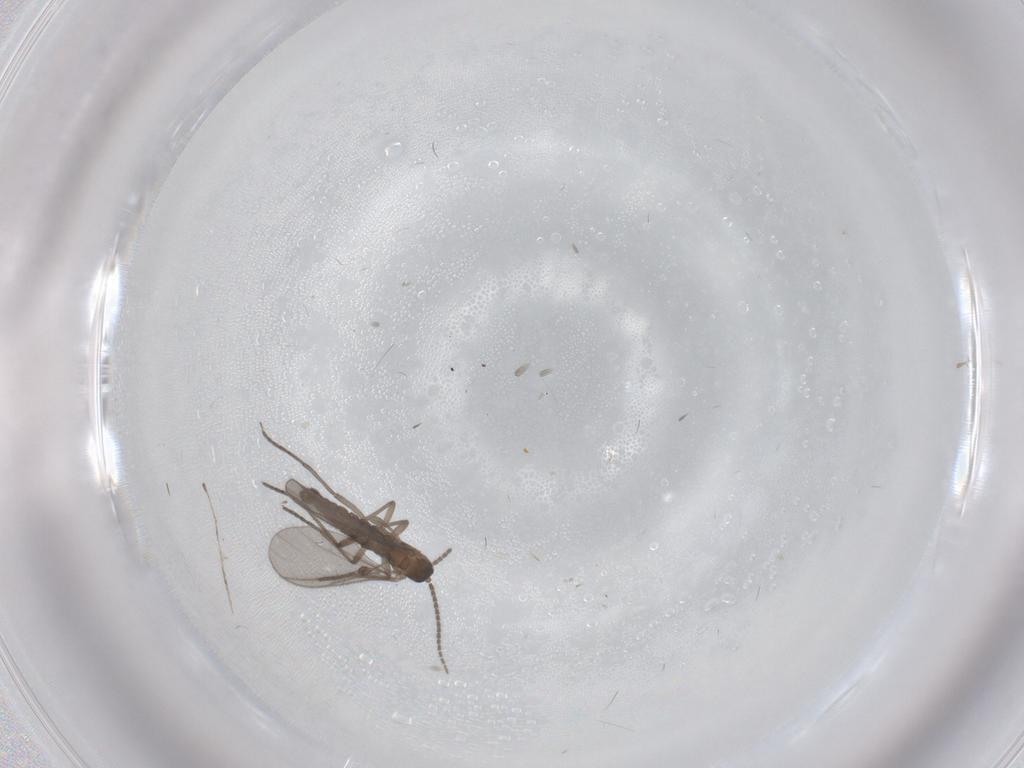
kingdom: Animalia
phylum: Arthropoda
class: Insecta
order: Diptera
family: Sciaridae
